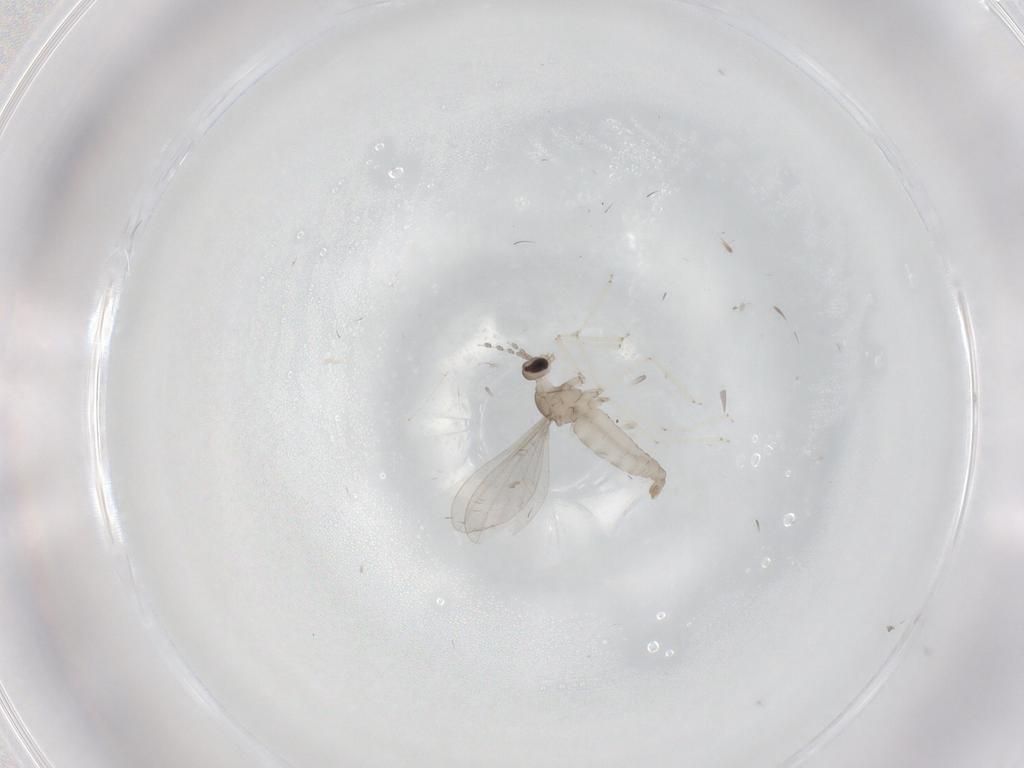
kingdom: Animalia
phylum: Arthropoda
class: Insecta
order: Diptera
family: Cecidomyiidae
